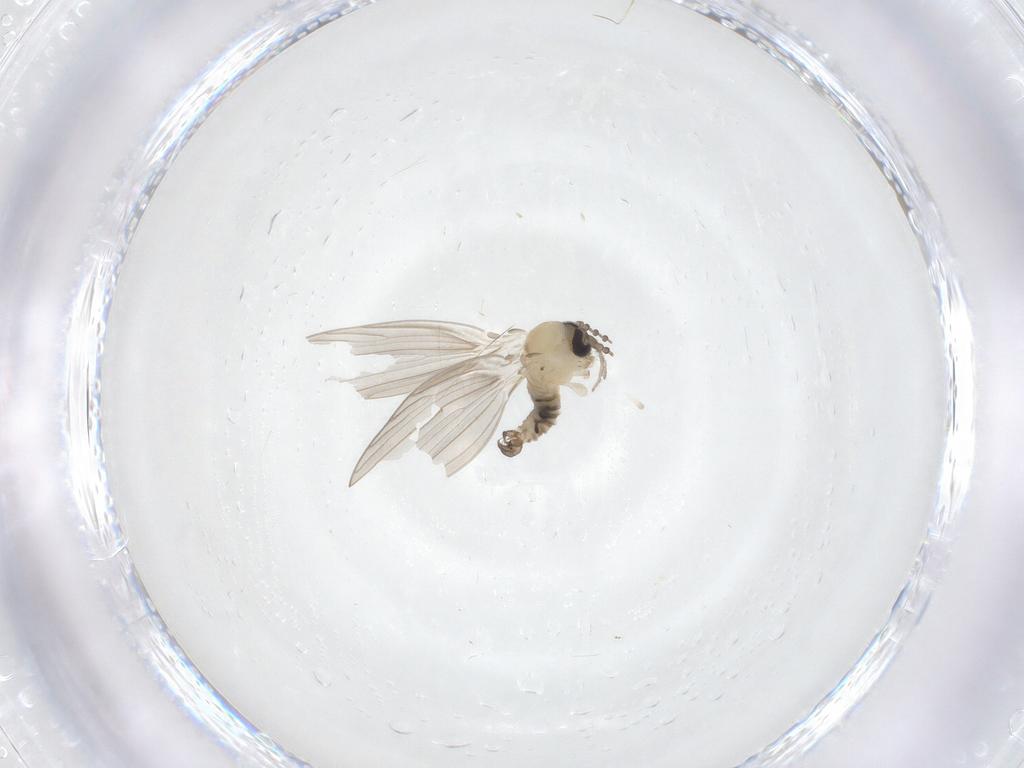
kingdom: Animalia
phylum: Arthropoda
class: Insecta
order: Diptera
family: Psychodidae
